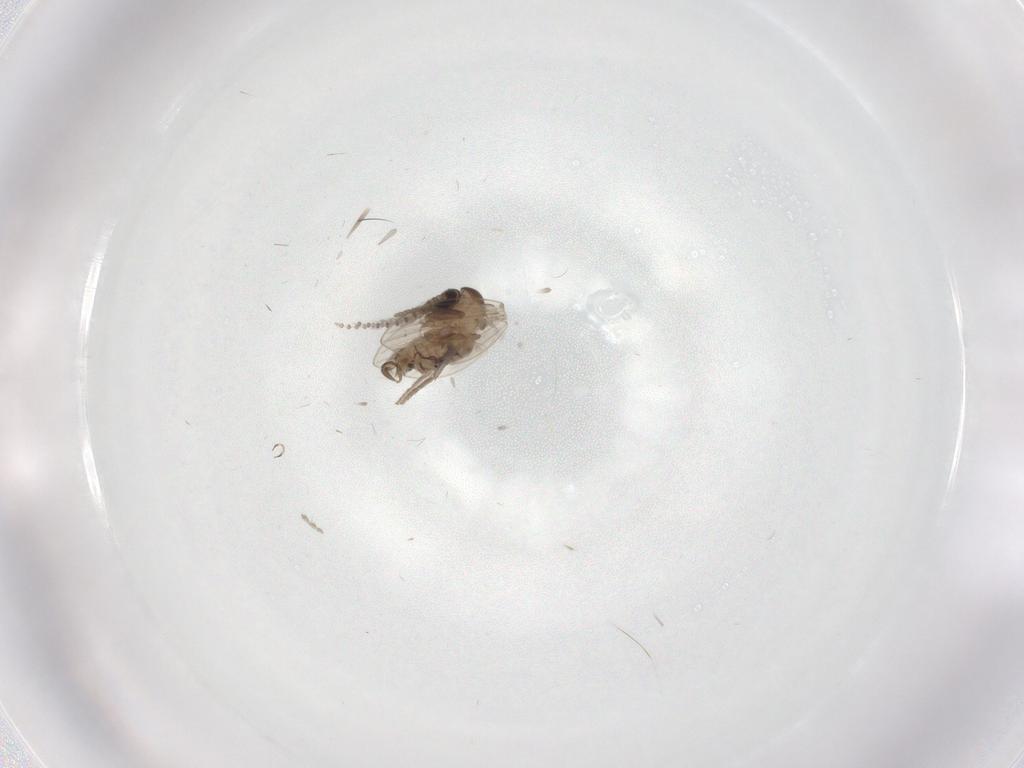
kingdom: Animalia
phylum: Arthropoda
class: Insecta
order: Diptera
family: Psychodidae
